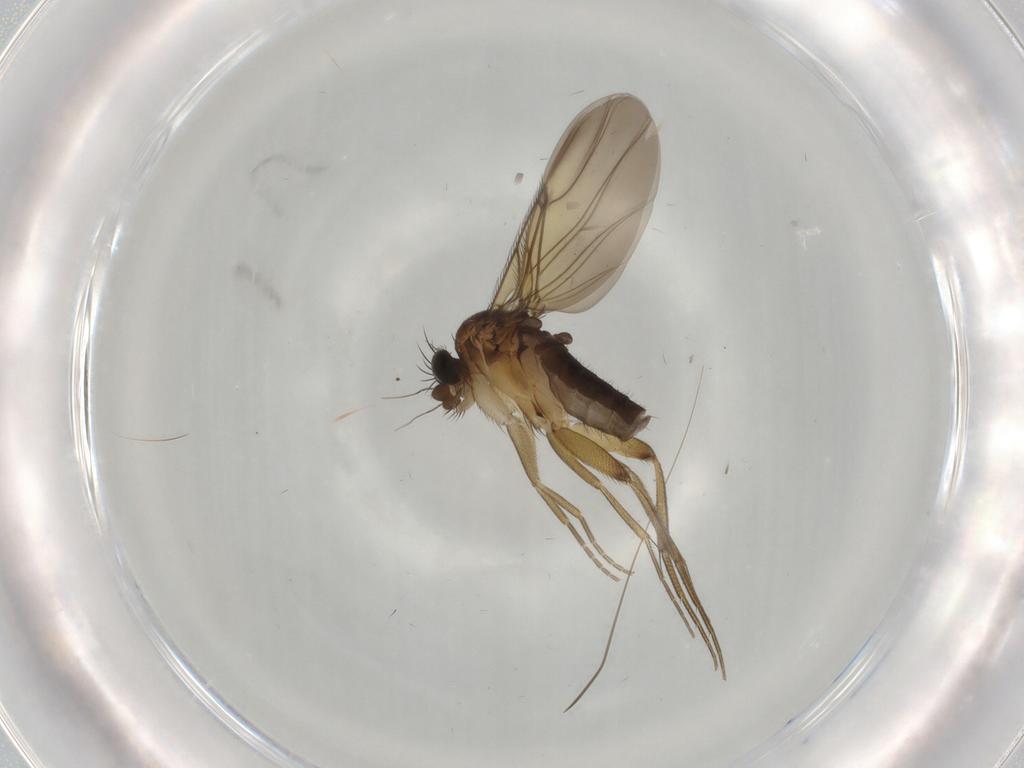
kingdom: Animalia
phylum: Arthropoda
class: Insecta
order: Diptera
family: Phoridae
